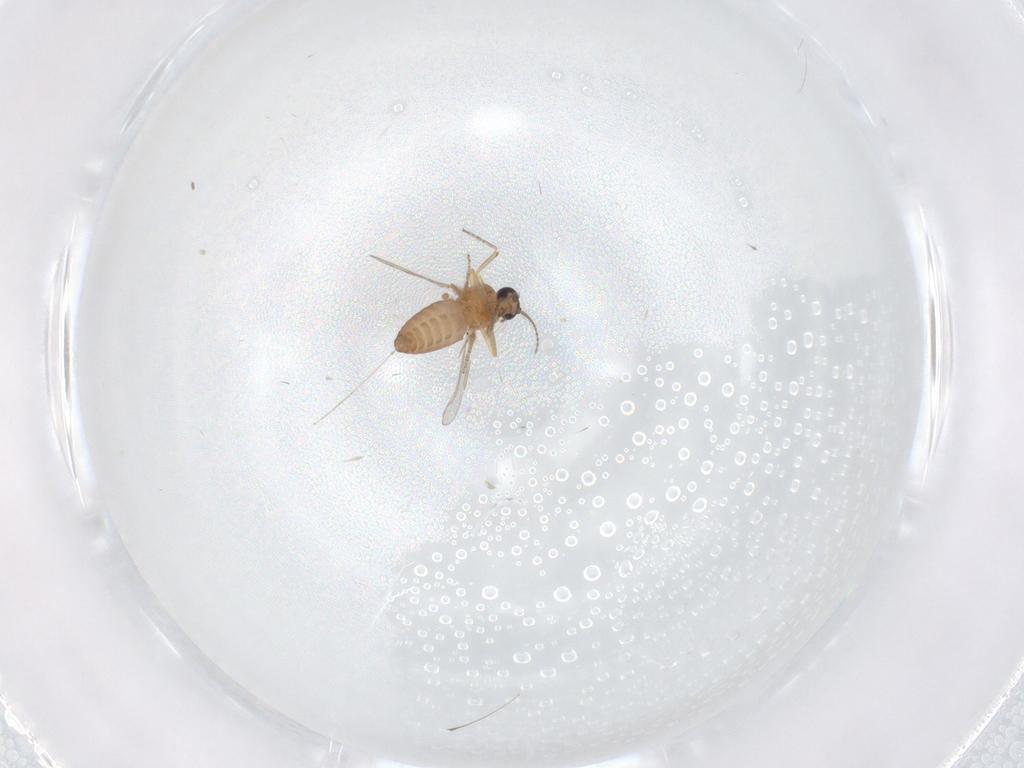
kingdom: Animalia
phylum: Arthropoda
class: Insecta
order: Diptera
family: Ceratopogonidae
